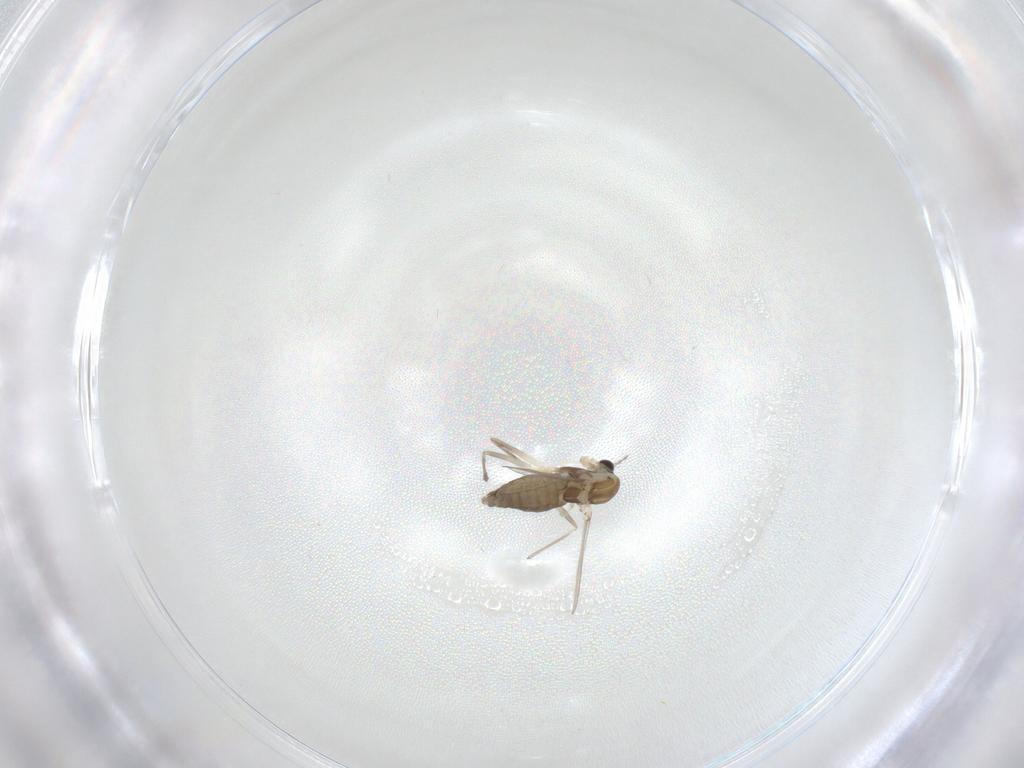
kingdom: Animalia
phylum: Arthropoda
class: Insecta
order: Diptera
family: Chironomidae
